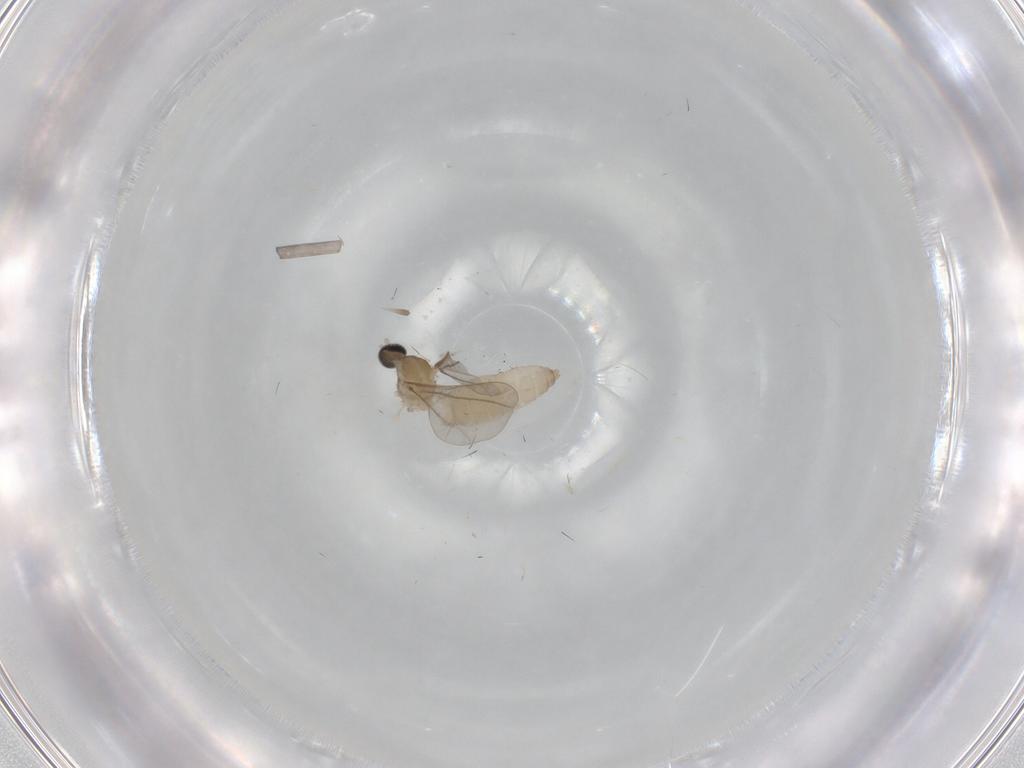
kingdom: Animalia
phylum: Arthropoda
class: Insecta
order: Diptera
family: Cecidomyiidae
